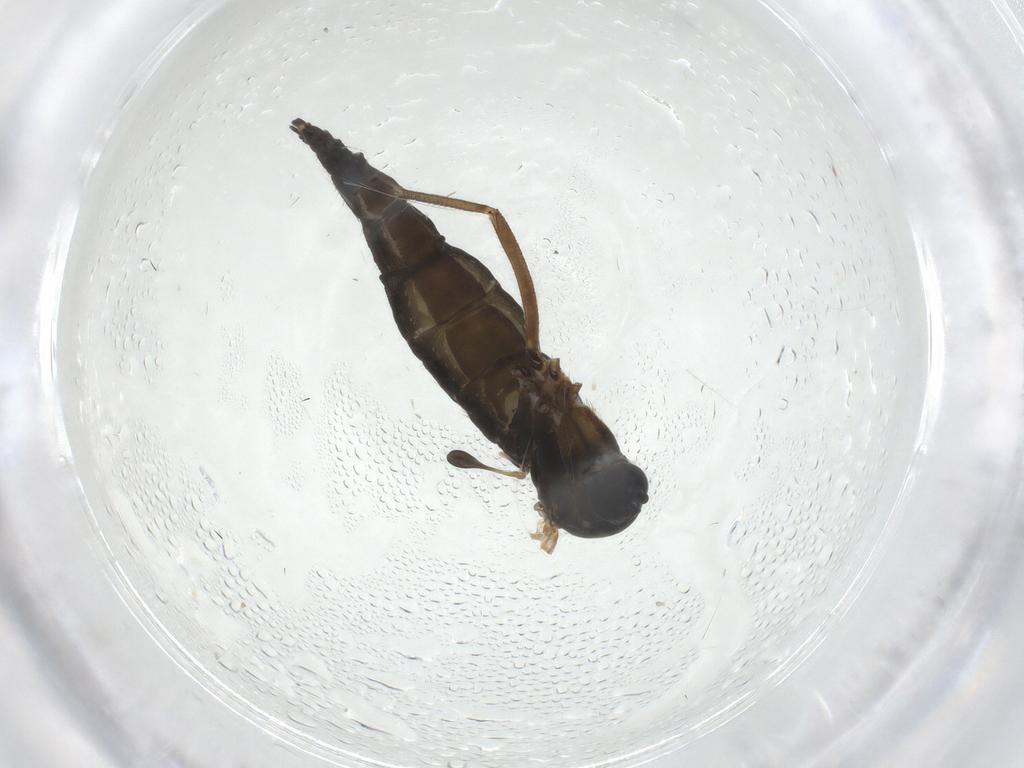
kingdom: Animalia
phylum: Arthropoda
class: Insecta
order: Diptera
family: Sciaridae
